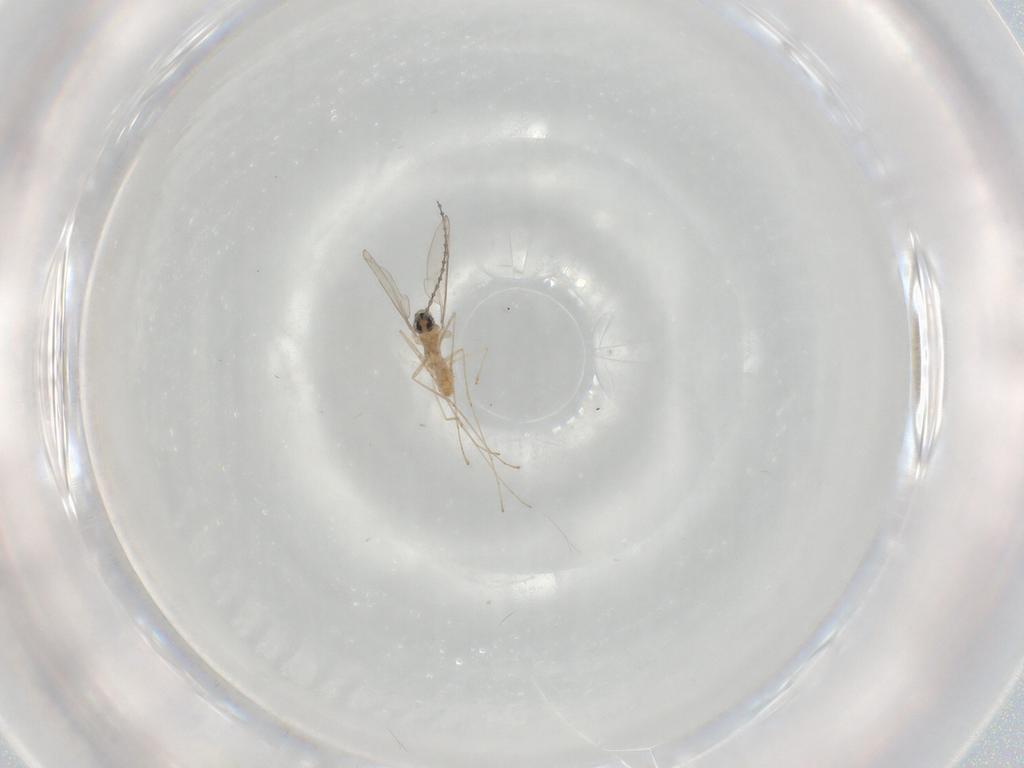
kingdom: Animalia
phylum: Arthropoda
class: Insecta
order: Diptera
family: Cecidomyiidae
